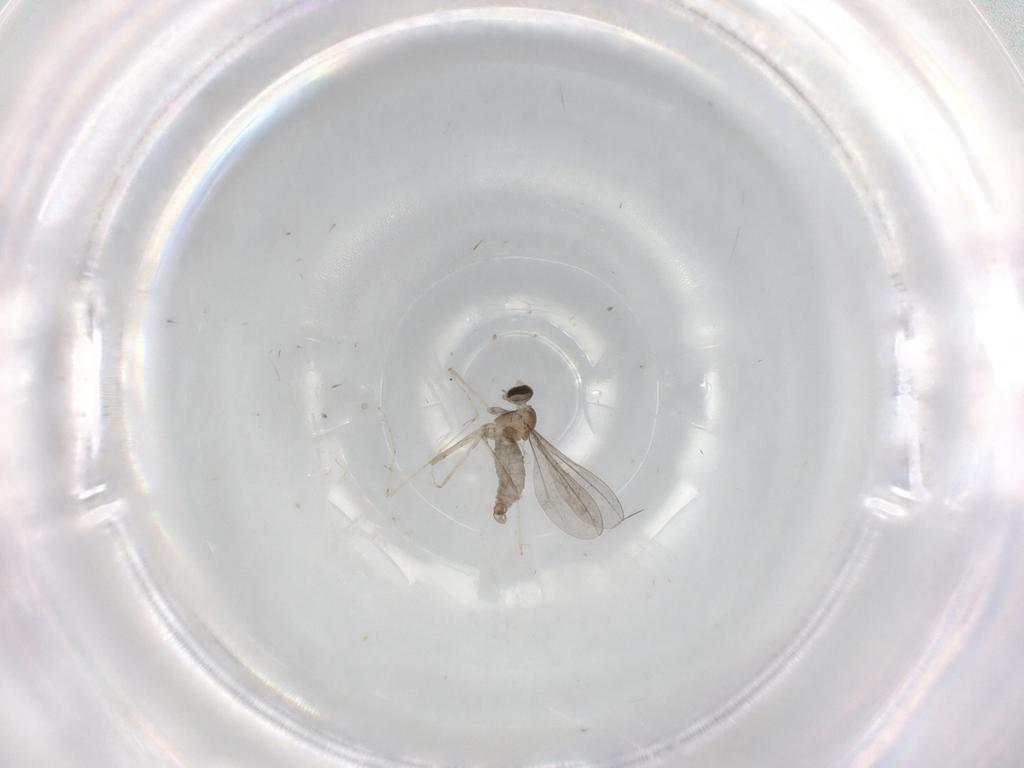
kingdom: Animalia
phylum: Arthropoda
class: Insecta
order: Diptera
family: Cecidomyiidae
